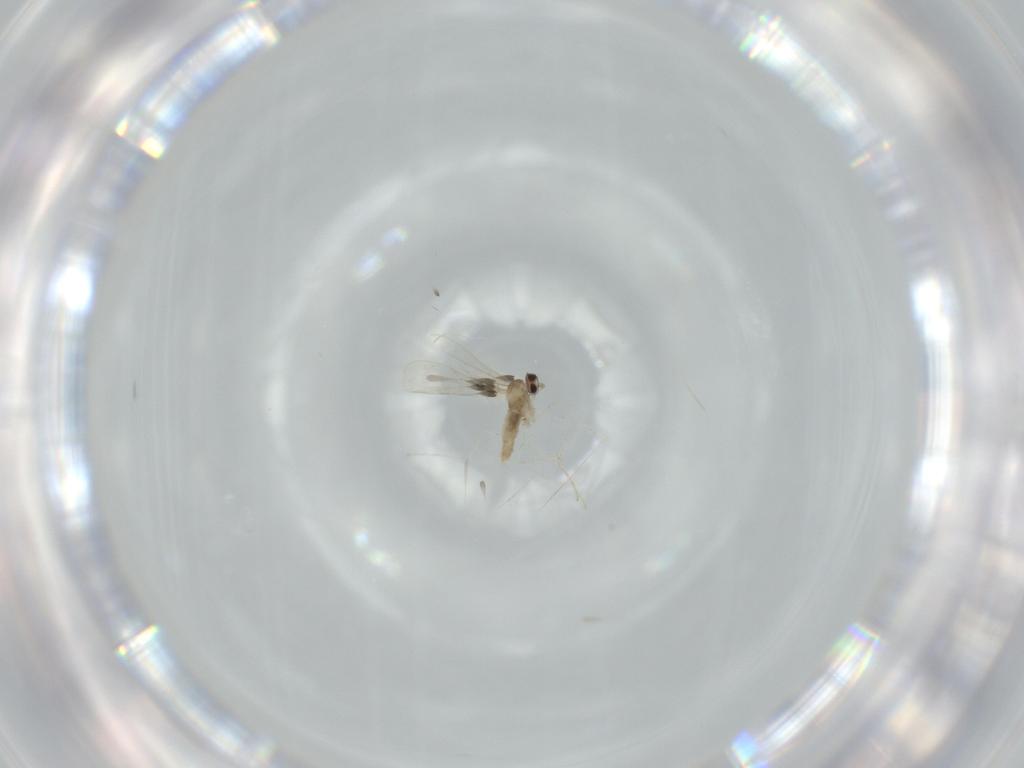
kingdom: Animalia
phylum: Arthropoda
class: Insecta
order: Diptera
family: Cecidomyiidae
